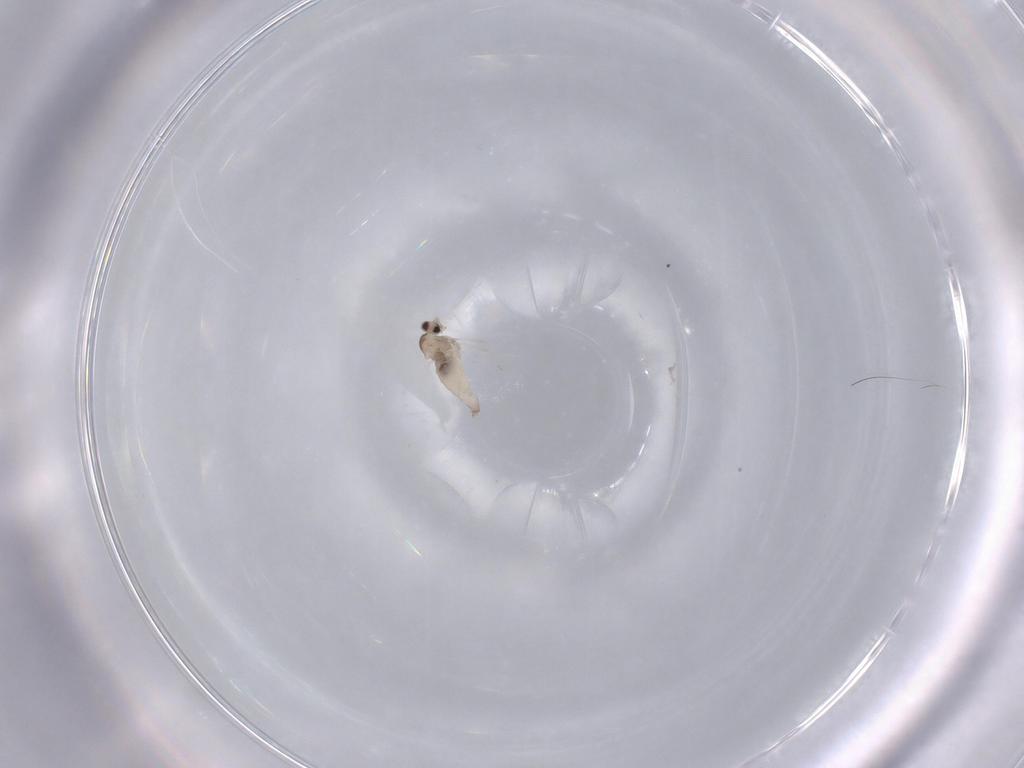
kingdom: Animalia
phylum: Arthropoda
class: Insecta
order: Diptera
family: Cecidomyiidae
